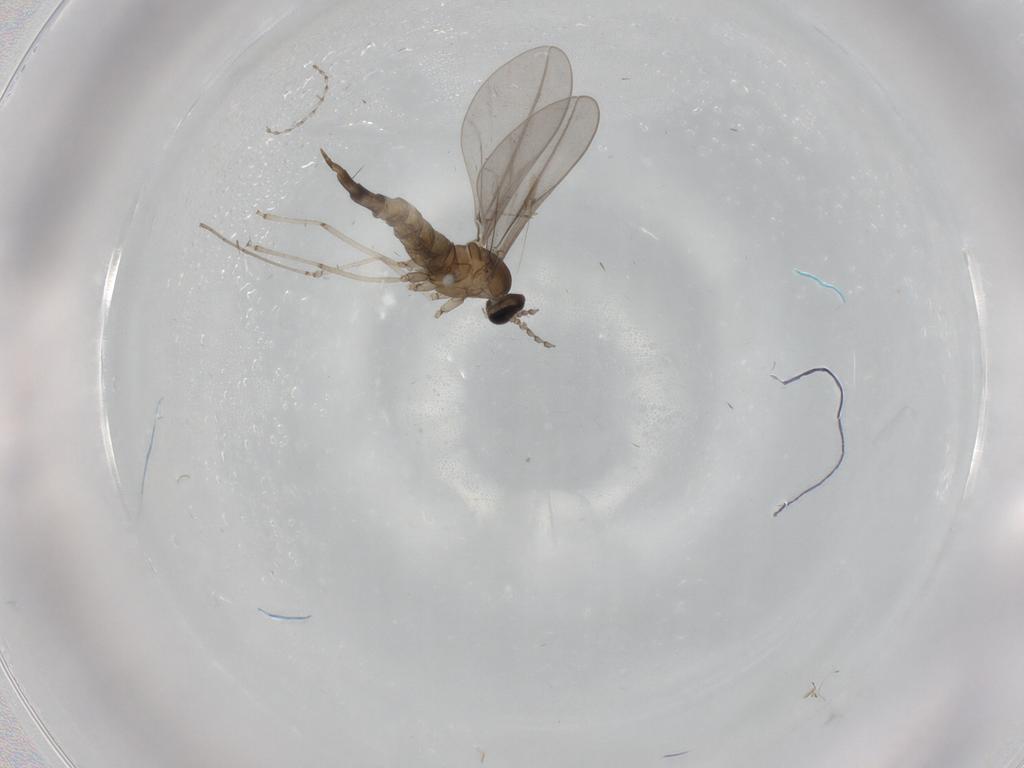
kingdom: Animalia
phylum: Arthropoda
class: Insecta
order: Diptera
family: Cecidomyiidae
